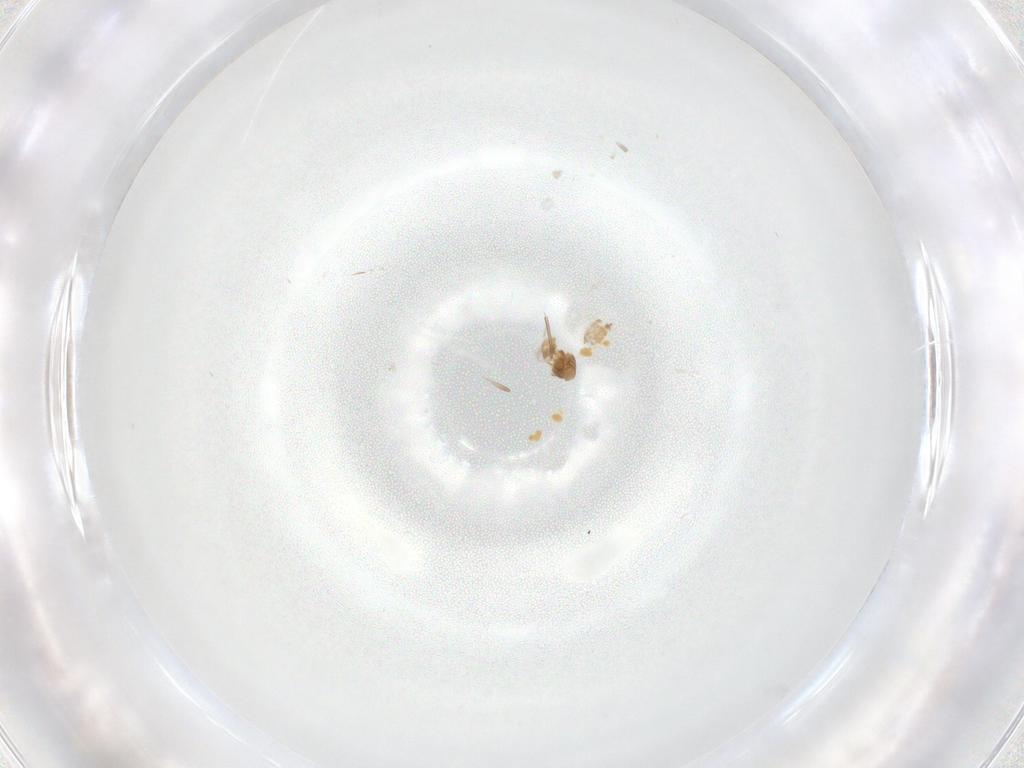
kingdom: Animalia
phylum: Arthropoda
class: Insecta
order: Diptera
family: Chironomidae
